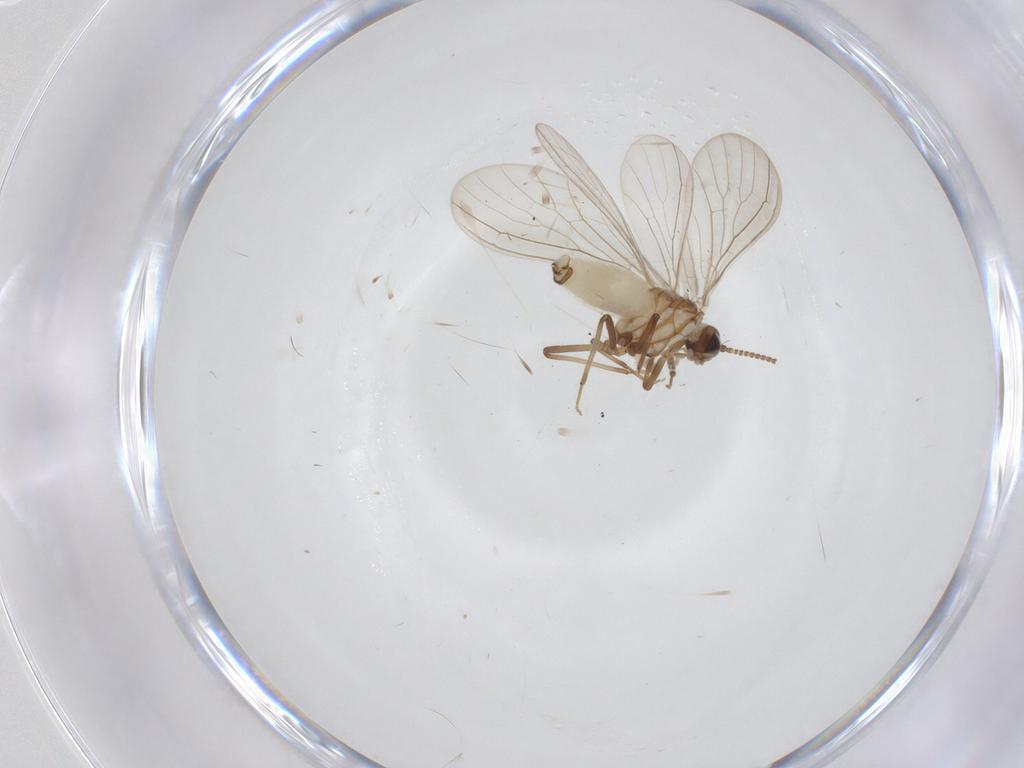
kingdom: Animalia
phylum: Arthropoda
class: Insecta
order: Neuroptera
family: Coniopterygidae
